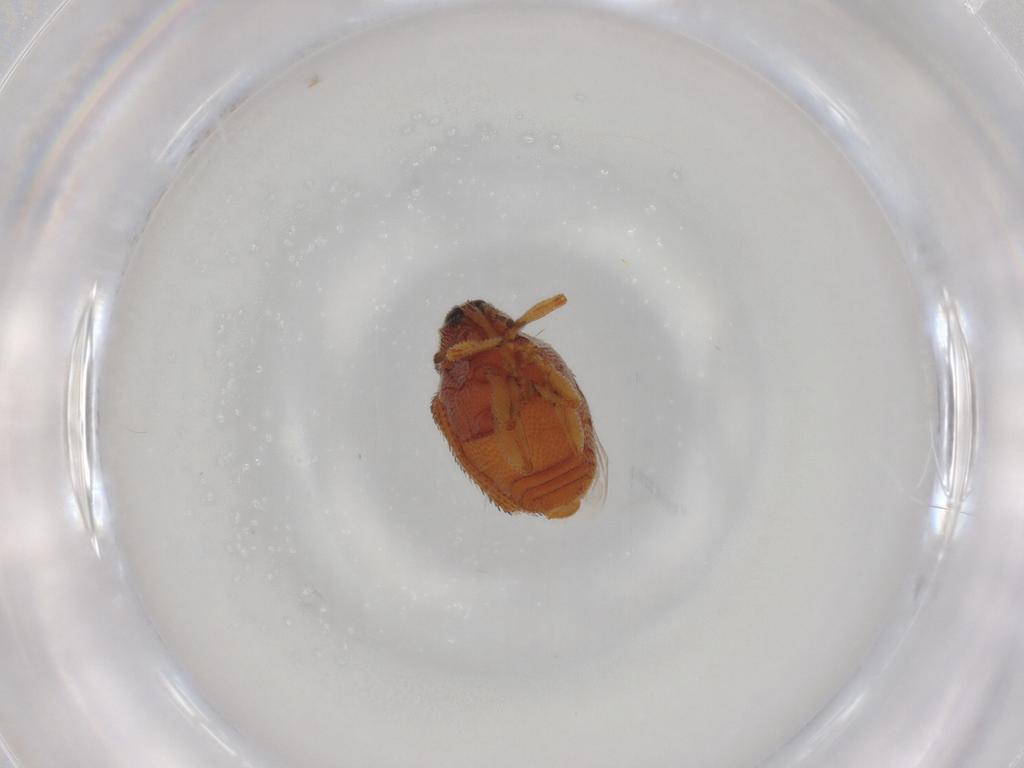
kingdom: Animalia
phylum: Arthropoda
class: Insecta
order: Coleoptera
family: Curculionidae
